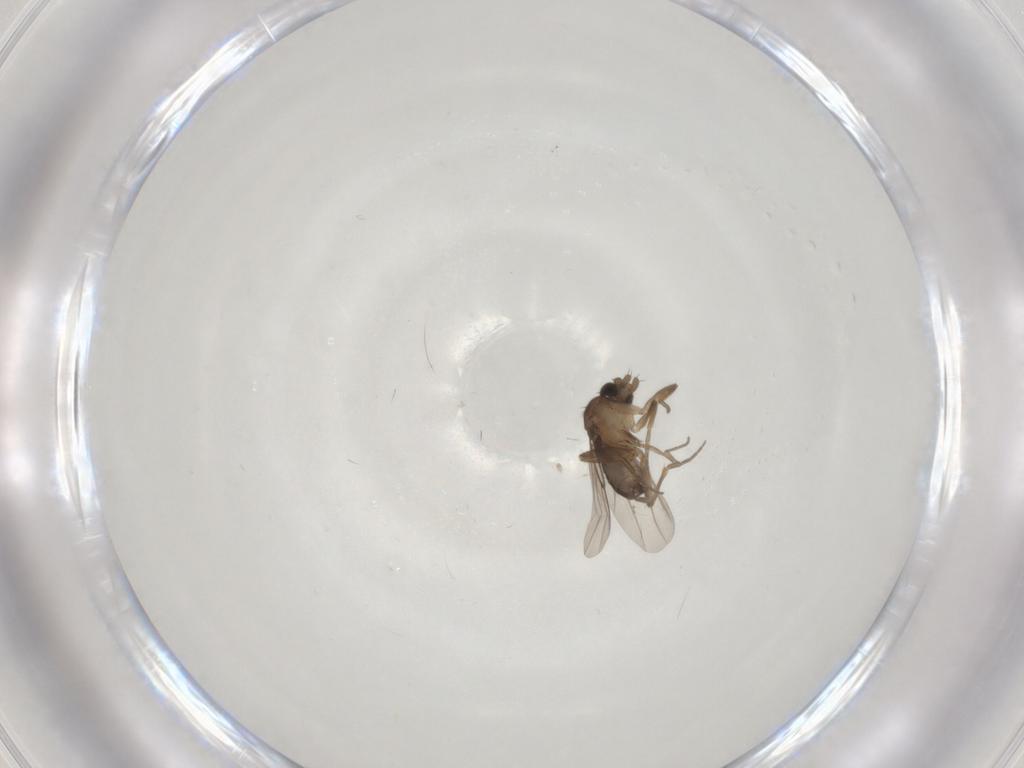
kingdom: Animalia
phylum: Arthropoda
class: Insecta
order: Diptera
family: Phoridae
